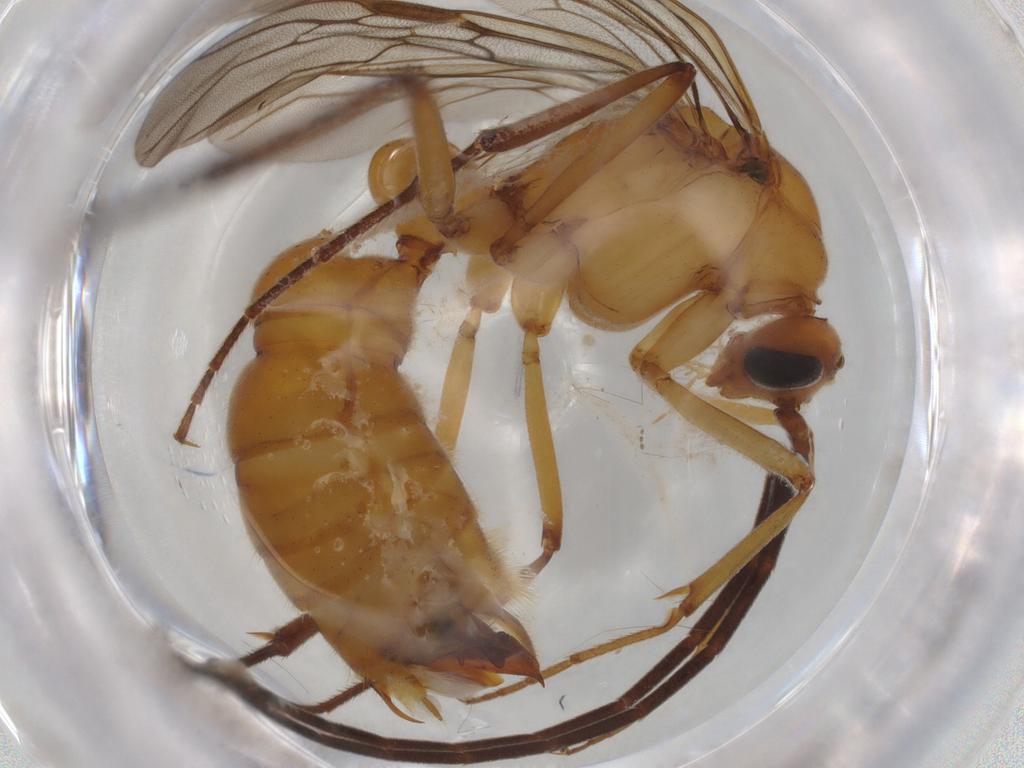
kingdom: Animalia
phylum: Arthropoda
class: Insecta
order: Hymenoptera
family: Formicidae
